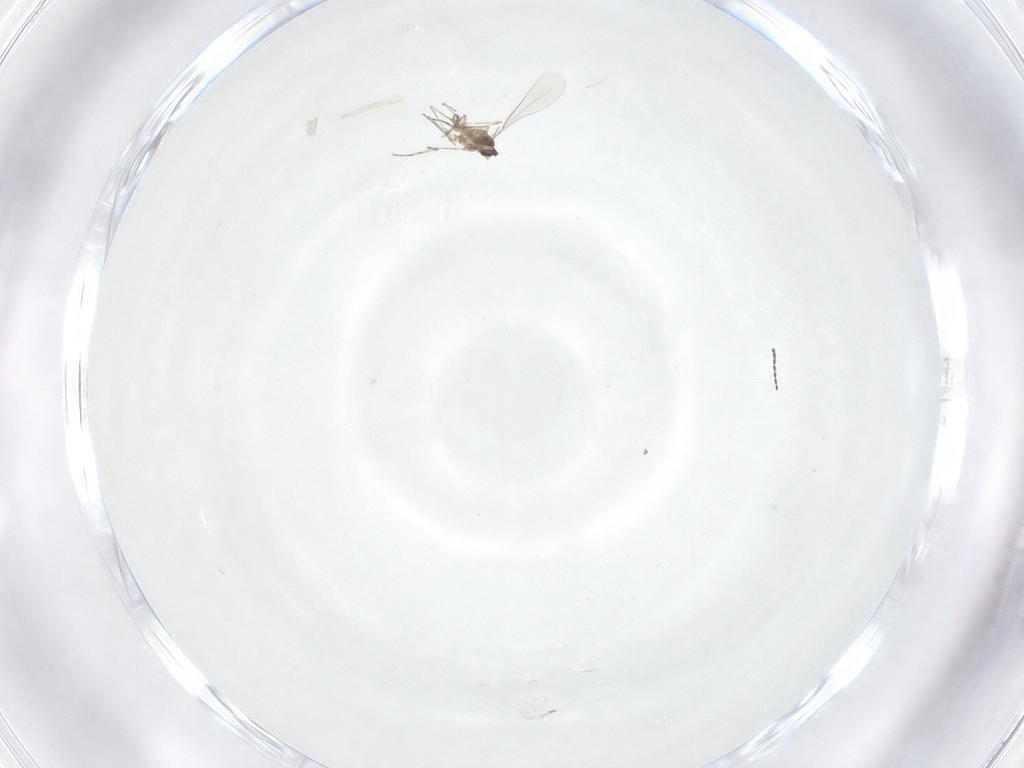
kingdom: Animalia
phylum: Arthropoda
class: Insecta
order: Diptera
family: Cecidomyiidae
